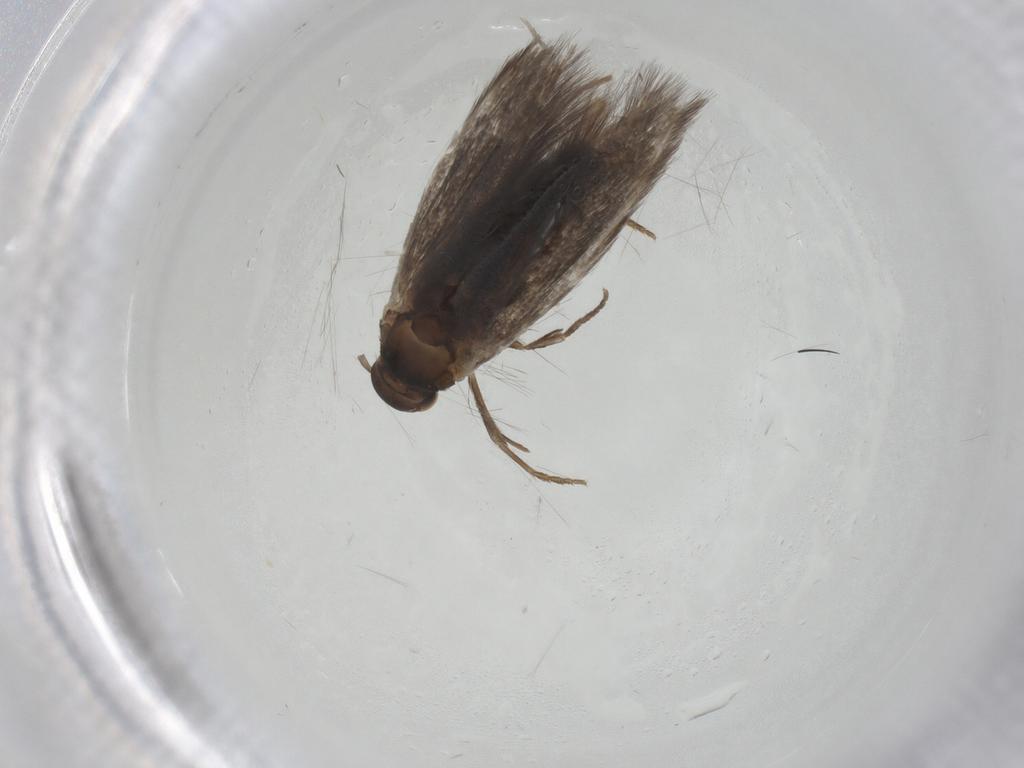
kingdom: Animalia
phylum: Arthropoda
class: Insecta
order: Lepidoptera
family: Elachistidae
